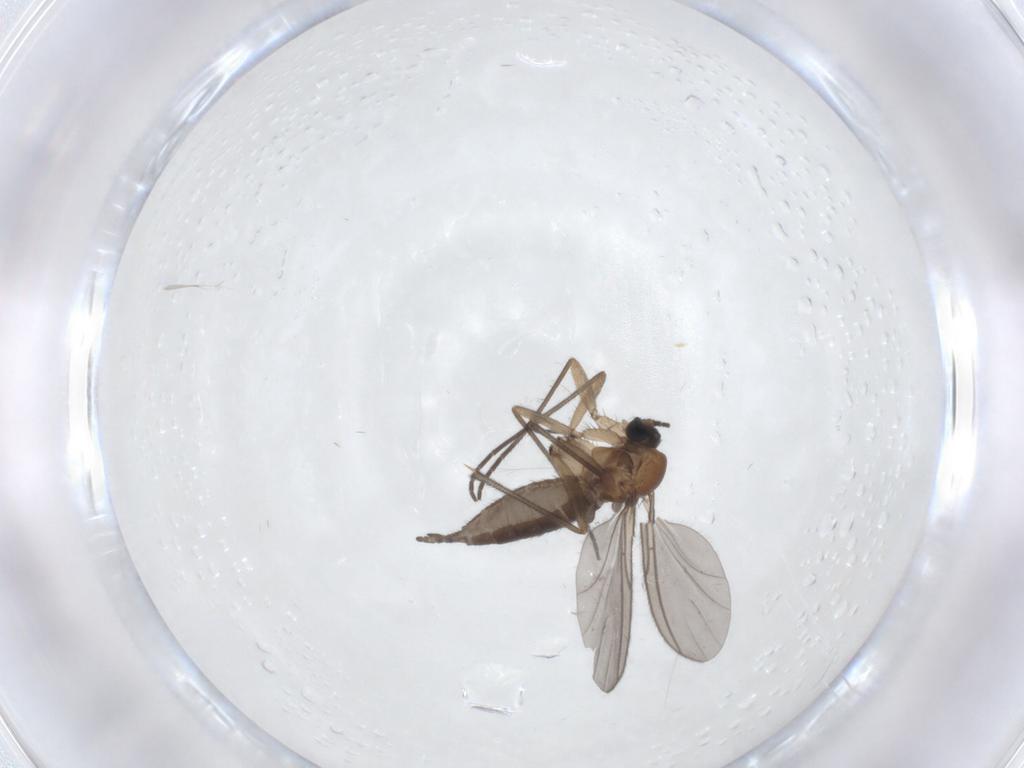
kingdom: Animalia
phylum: Arthropoda
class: Insecta
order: Diptera
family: Sciaridae
